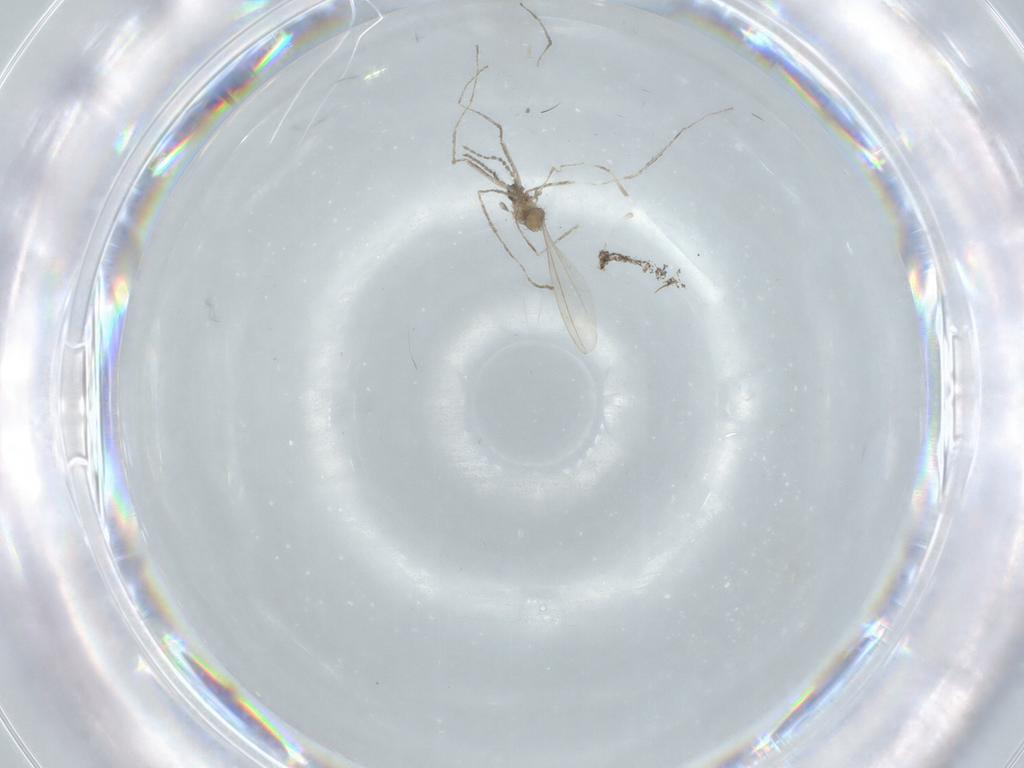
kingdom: Animalia
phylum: Arthropoda
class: Insecta
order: Diptera
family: Cecidomyiidae
